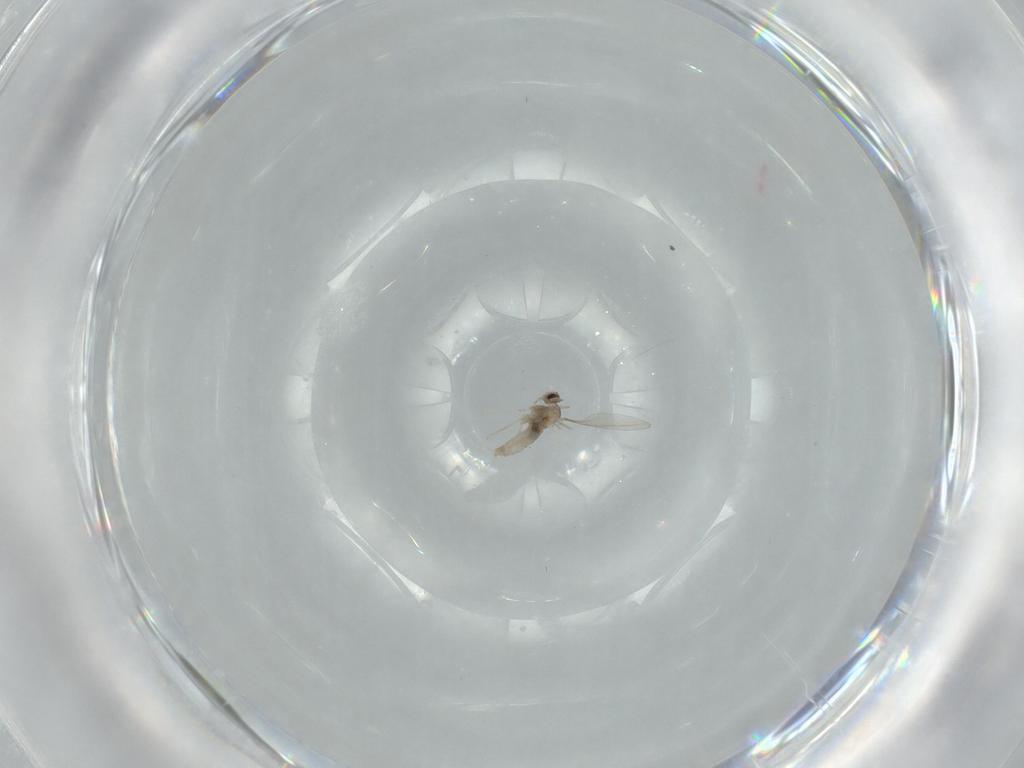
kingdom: Animalia
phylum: Arthropoda
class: Insecta
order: Diptera
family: Cecidomyiidae
